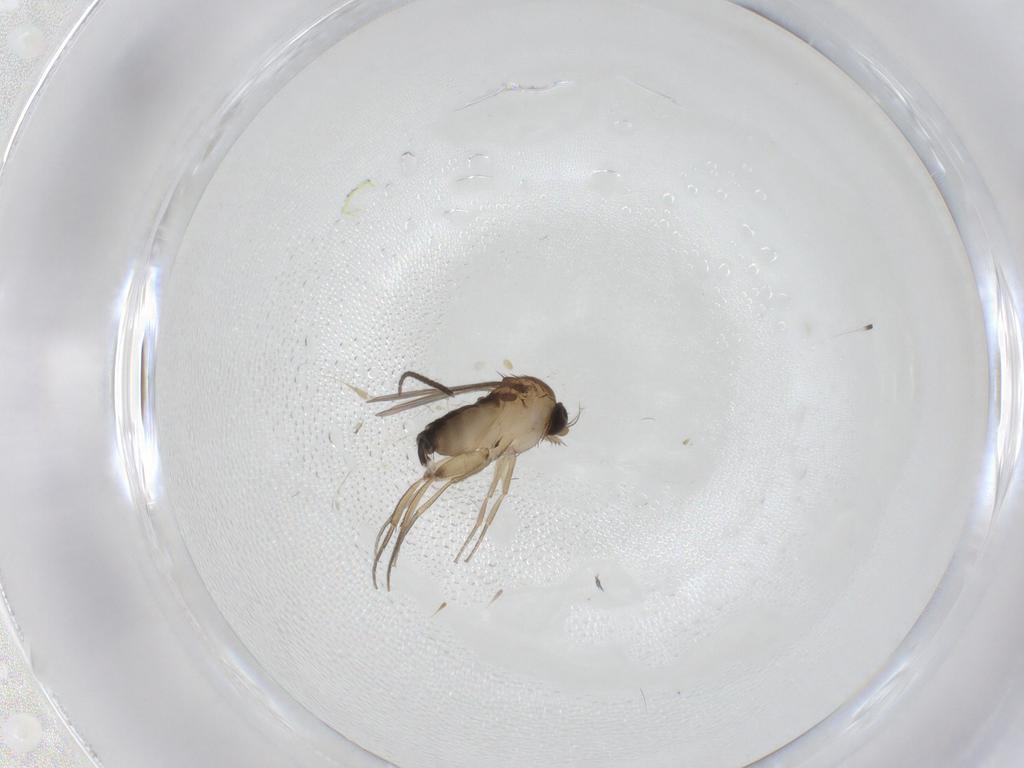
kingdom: Animalia
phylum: Arthropoda
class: Insecta
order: Diptera
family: Phoridae
